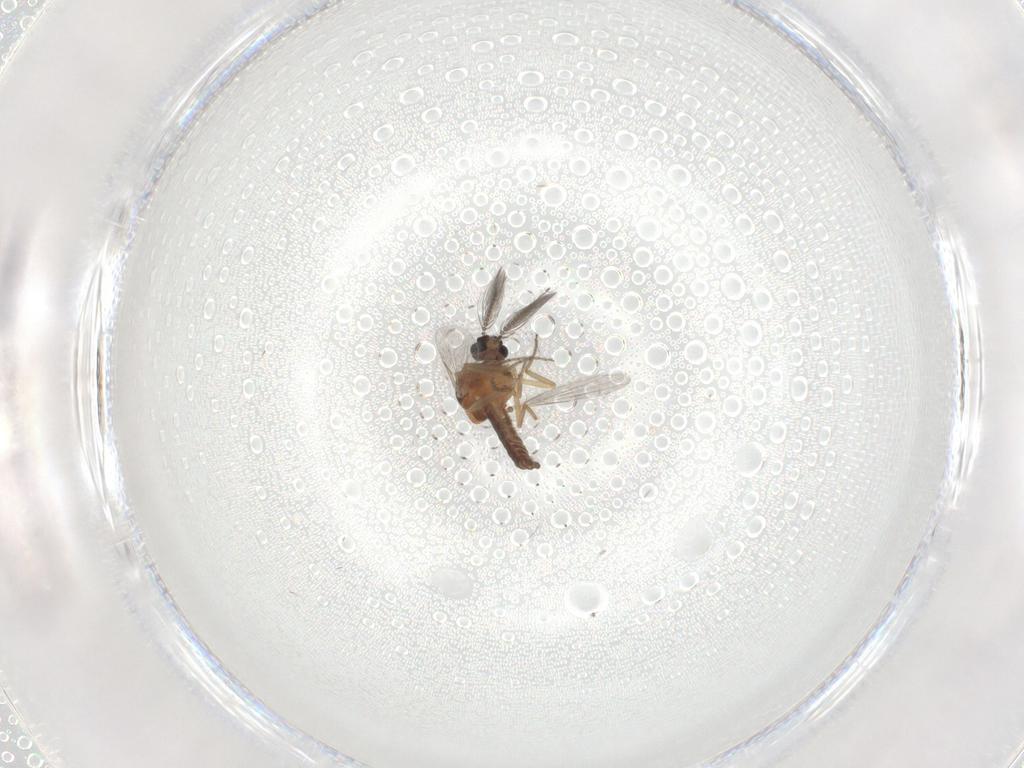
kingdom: Animalia
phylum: Arthropoda
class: Insecta
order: Diptera
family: Ceratopogonidae
